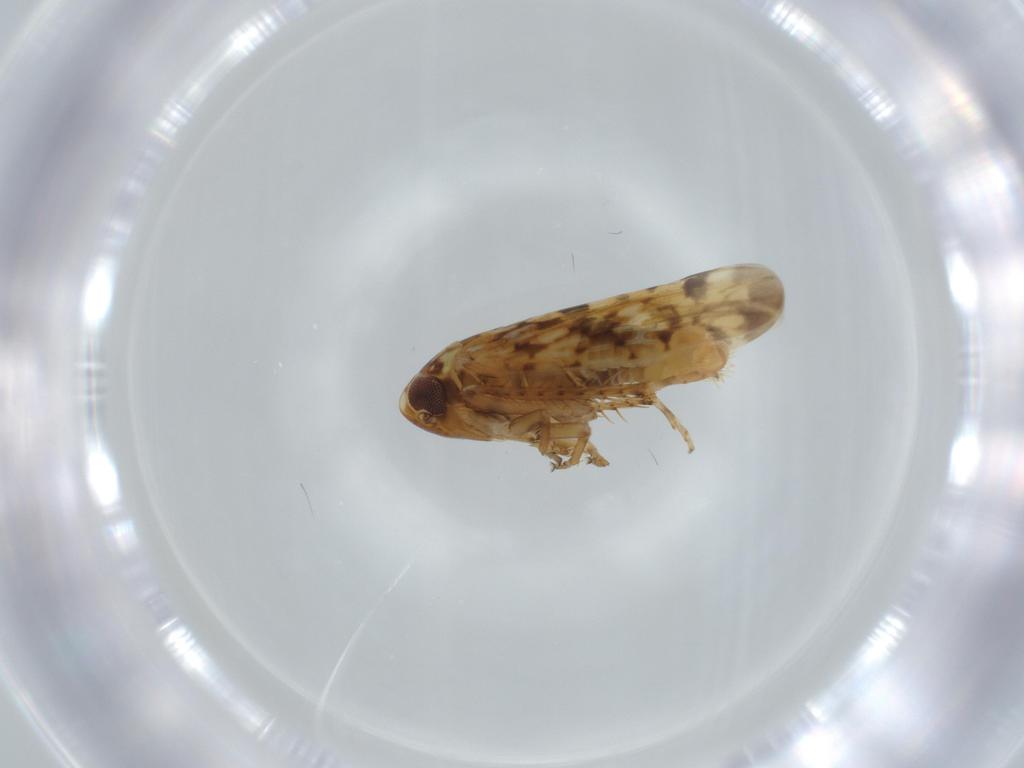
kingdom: Animalia
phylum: Arthropoda
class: Insecta
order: Hemiptera
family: Cicadellidae
